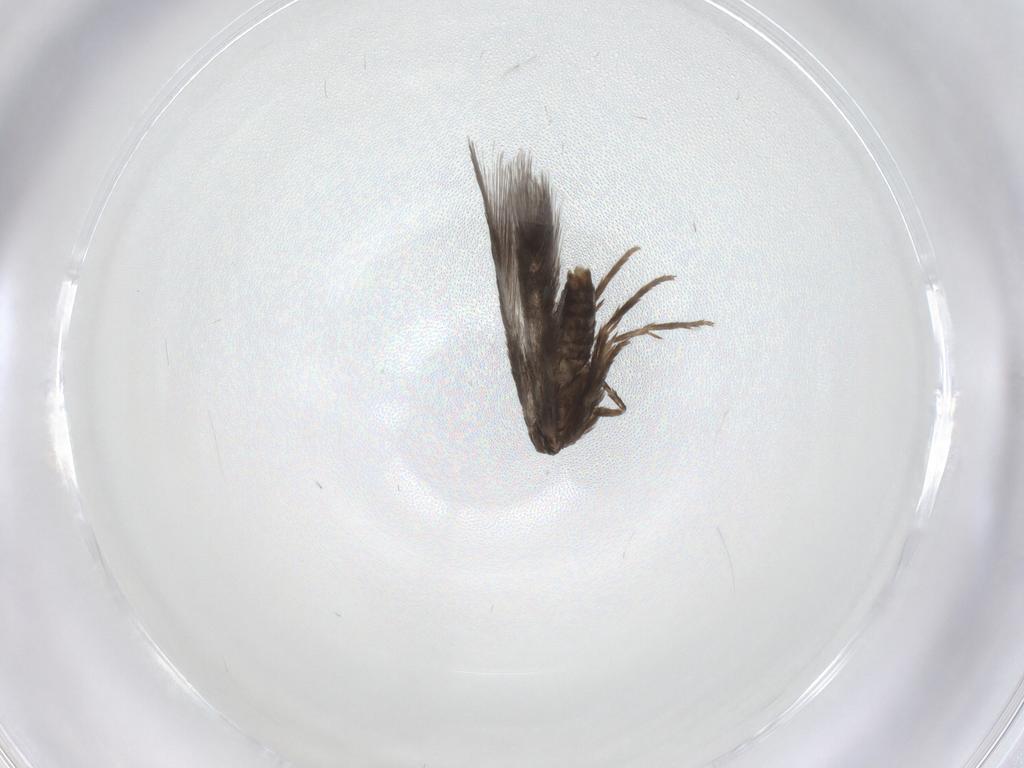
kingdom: Animalia
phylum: Arthropoda
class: Insecta
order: Lepidoptera
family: Nepticulidae
